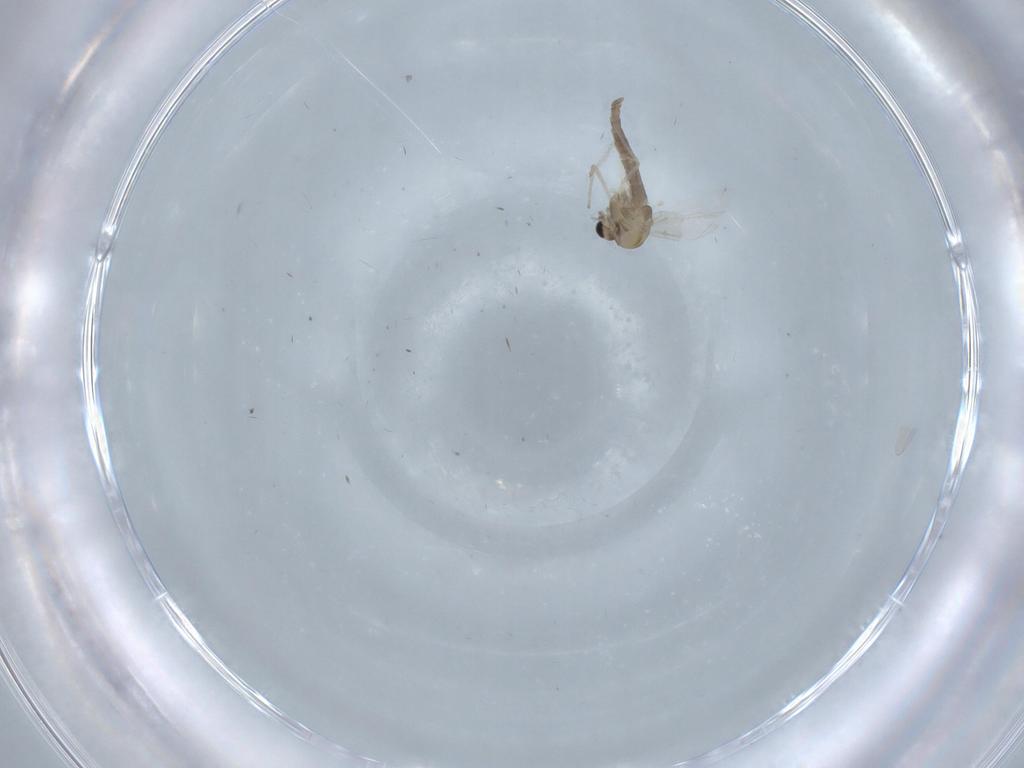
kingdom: Animalia
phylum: Arthropoda
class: Insecta
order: Diptera
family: Chironomidae
